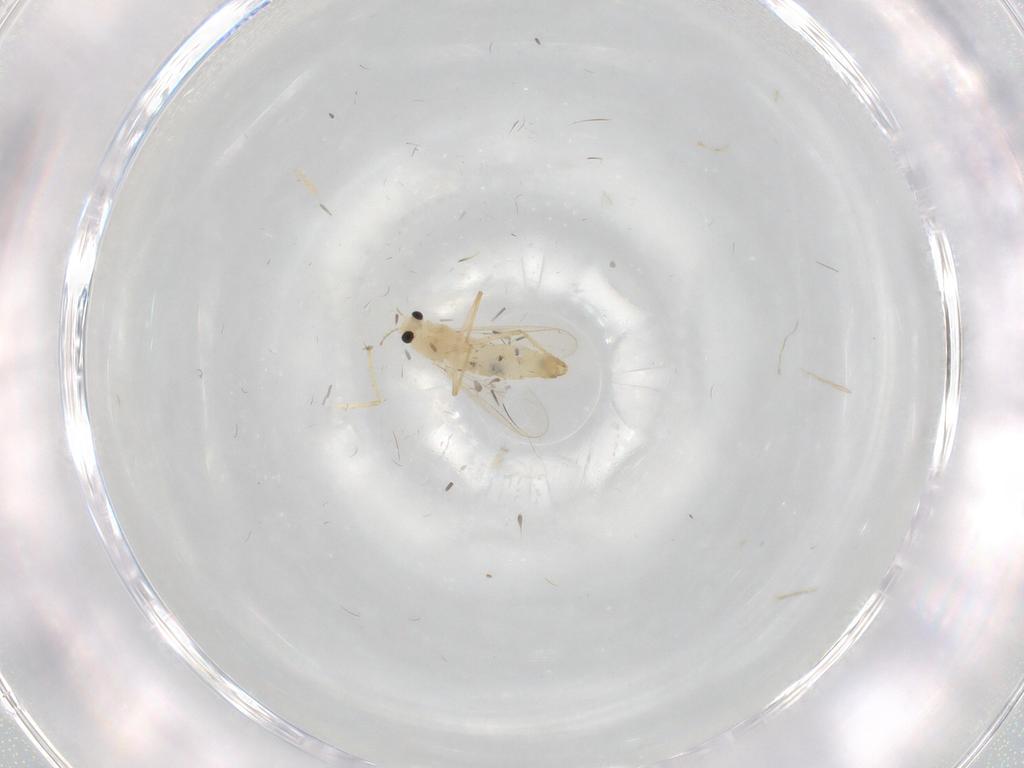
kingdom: Animalia
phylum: Arthropoda
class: Insecta
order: Diptera
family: Chironomidae
